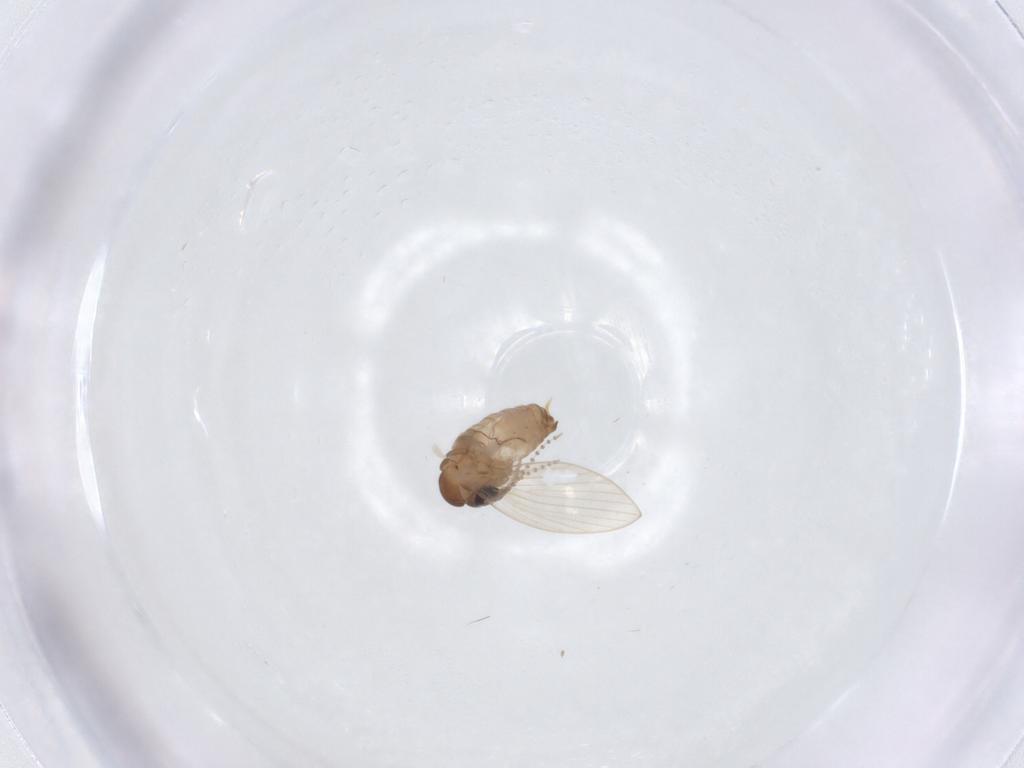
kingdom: Animalia
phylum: Arthropoda
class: Insecta
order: Diptera
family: Psychodidae
